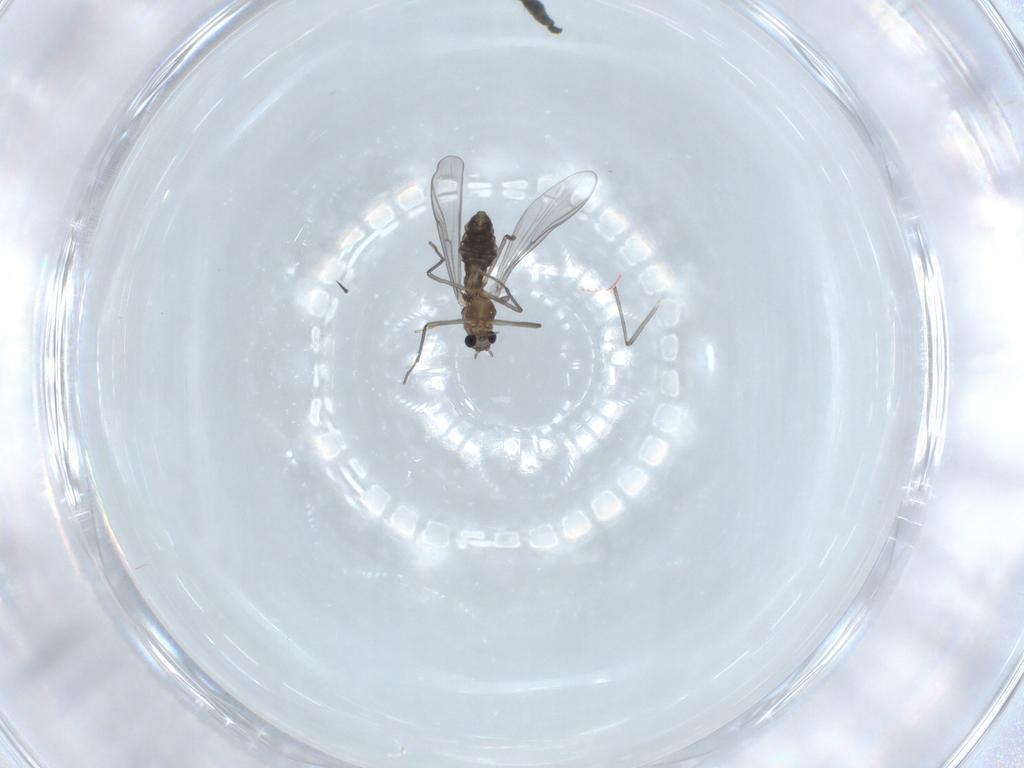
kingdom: Animalia
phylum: Arthropoda
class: Insecta
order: Diptera
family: Chironomidae
